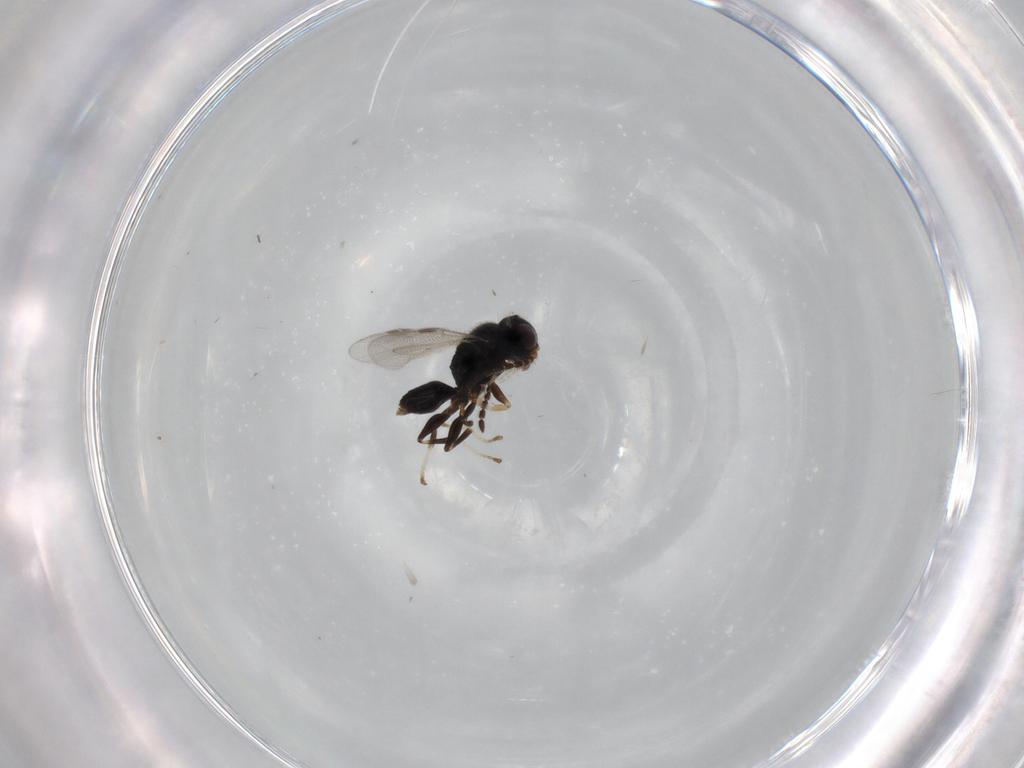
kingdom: Animalia
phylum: Arthropoda
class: Insecta
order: Hymenoptera
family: Dryinidae
